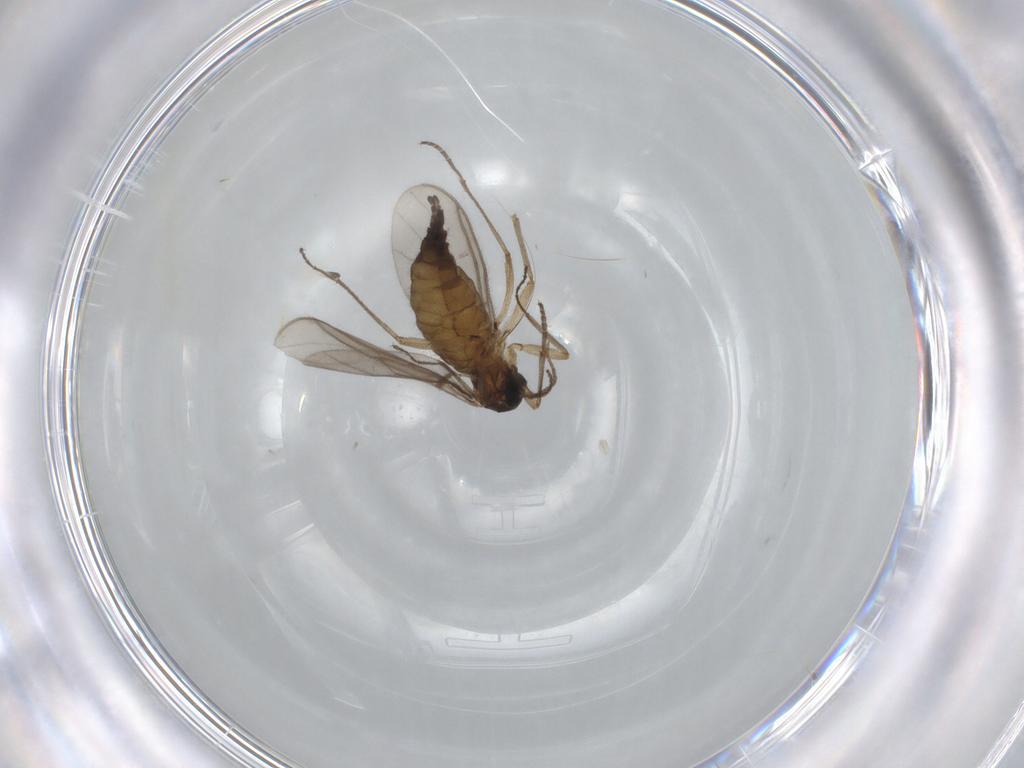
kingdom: Animalia
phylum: Arthropoda
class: Insecta
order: Diptera
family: Sciaridae
